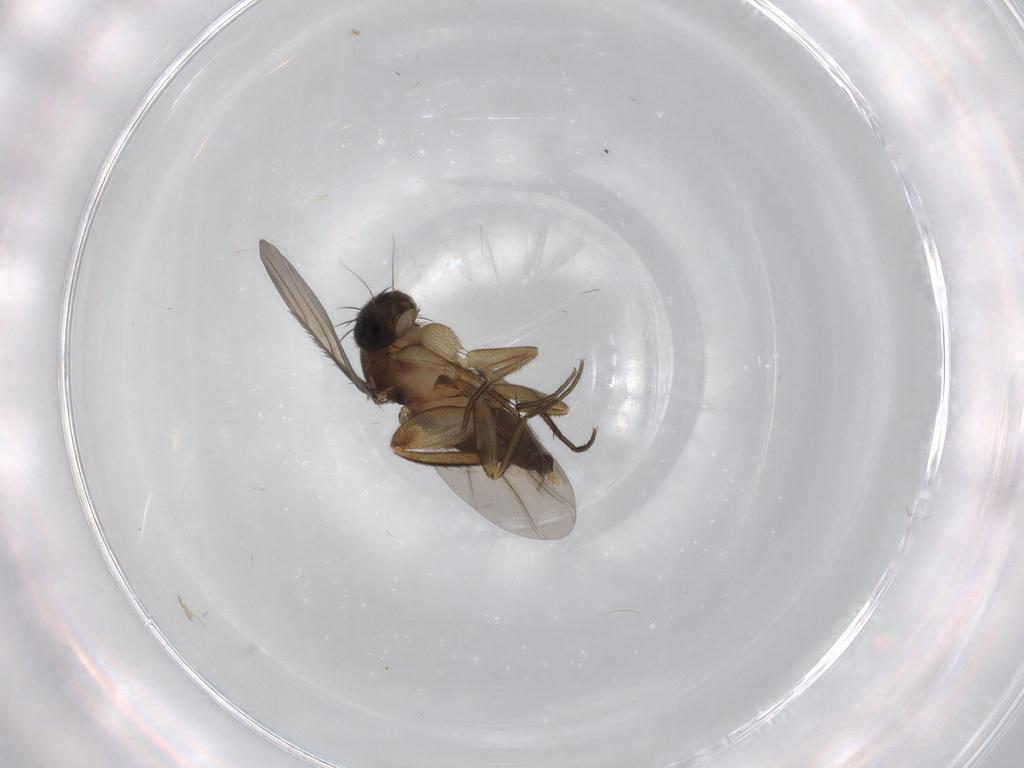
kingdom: Animalia
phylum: Arthropoda
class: Insecta
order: Diptera
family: Phoridae
